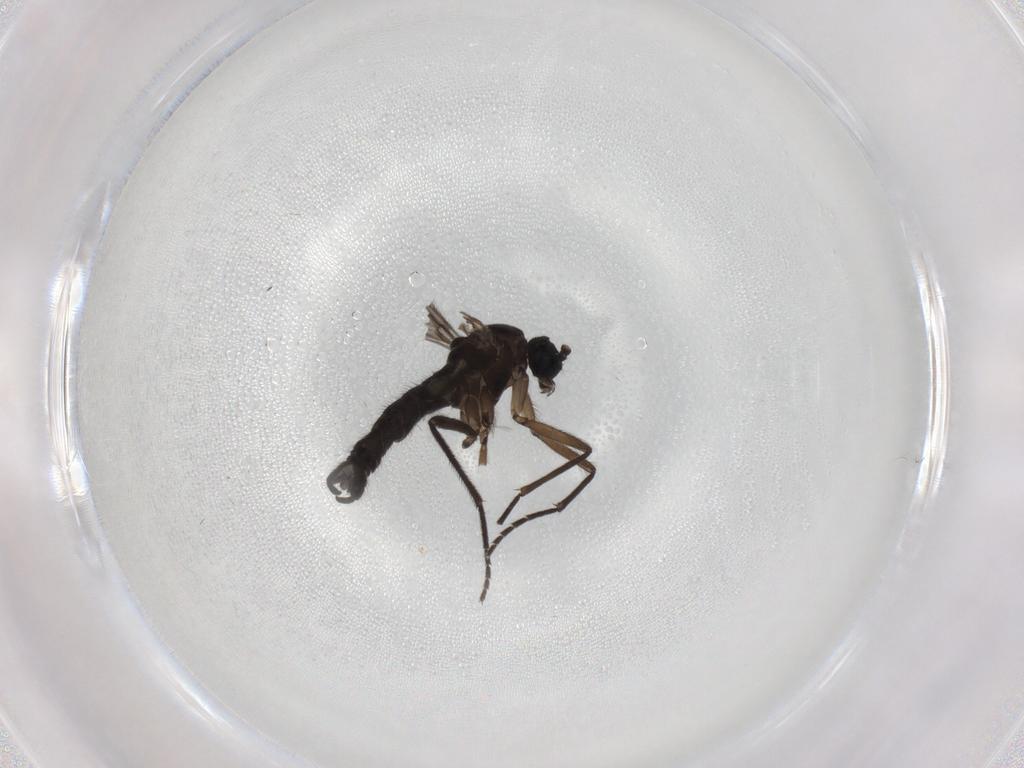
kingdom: Animalia
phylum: Arthropoda
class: Insecta
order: Diptera
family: Sciaridae
